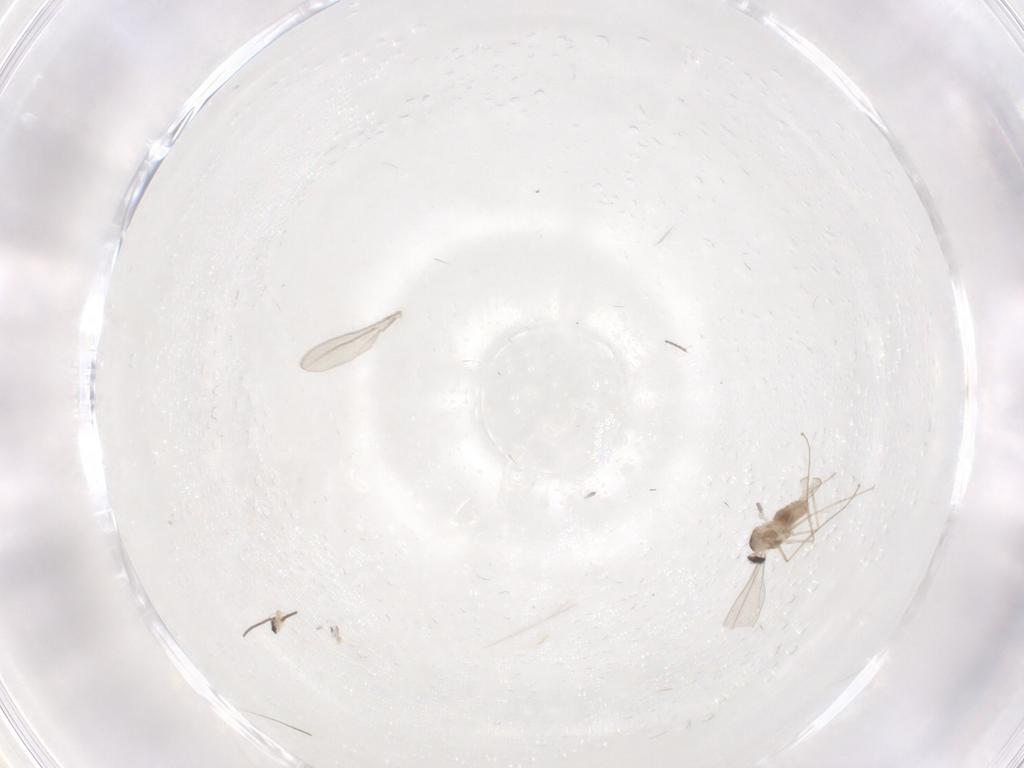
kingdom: Animalia
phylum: Arthropoda
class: Insecta
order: Diptera
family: Cecidomyiidae
